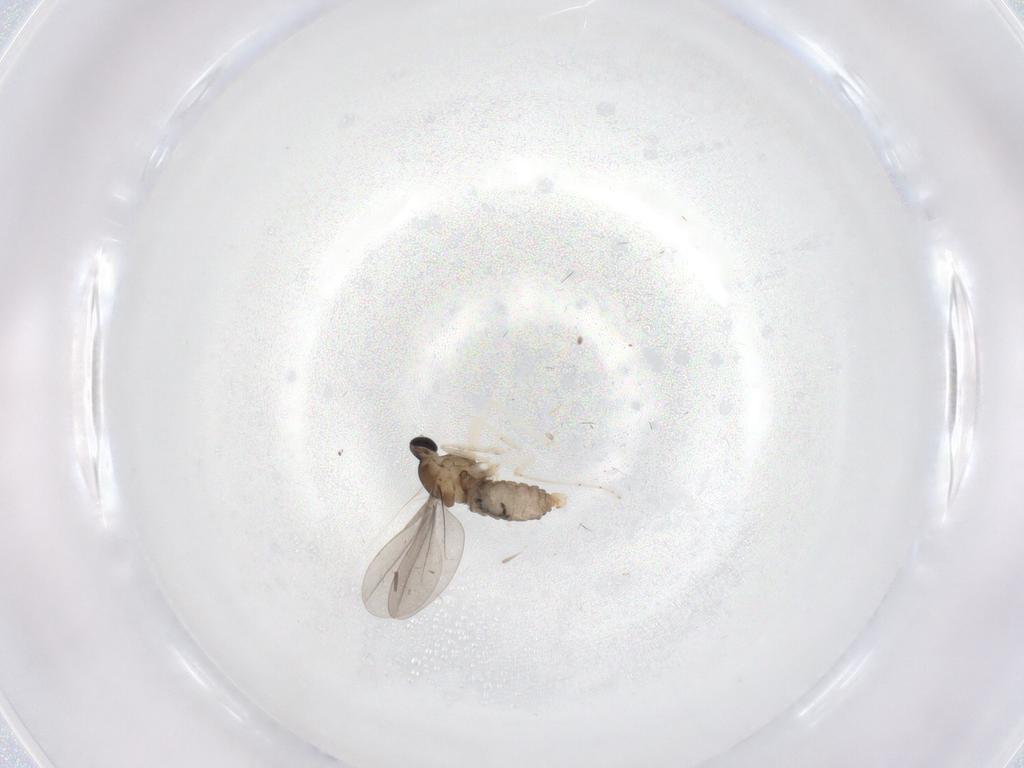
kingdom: Animalia
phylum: Arthropoda
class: Insecta
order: Diptera
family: Cecidomyiidae
